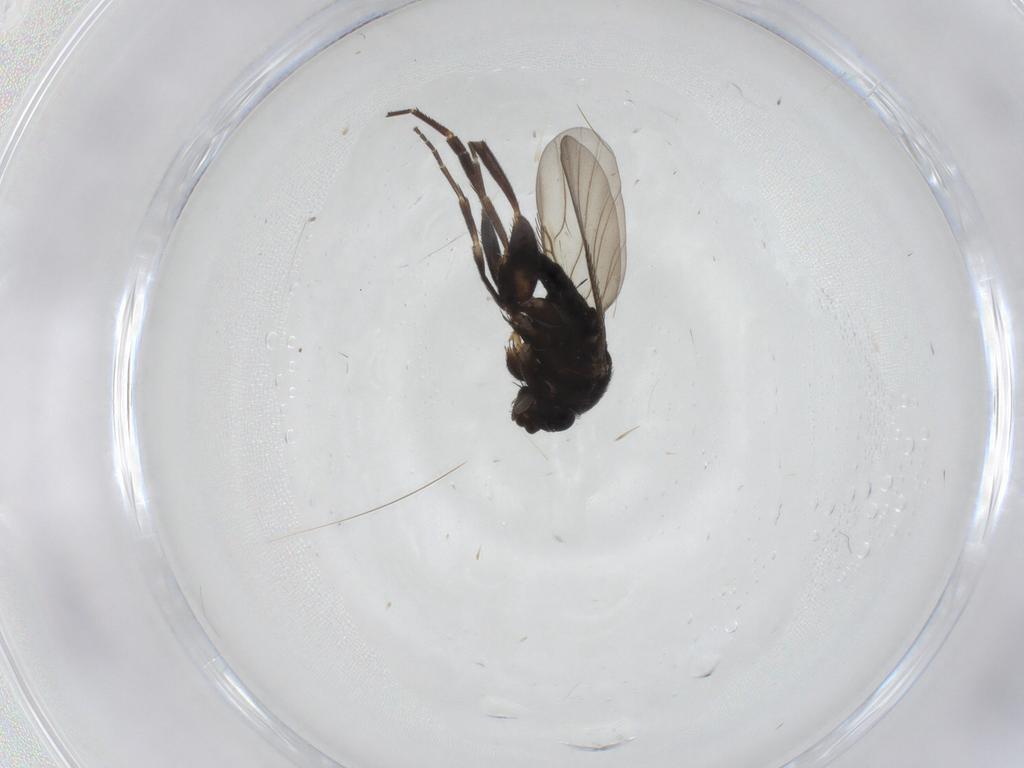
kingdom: Animalia
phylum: Arthropoda
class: Insecta
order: Diptera
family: Phoridae
